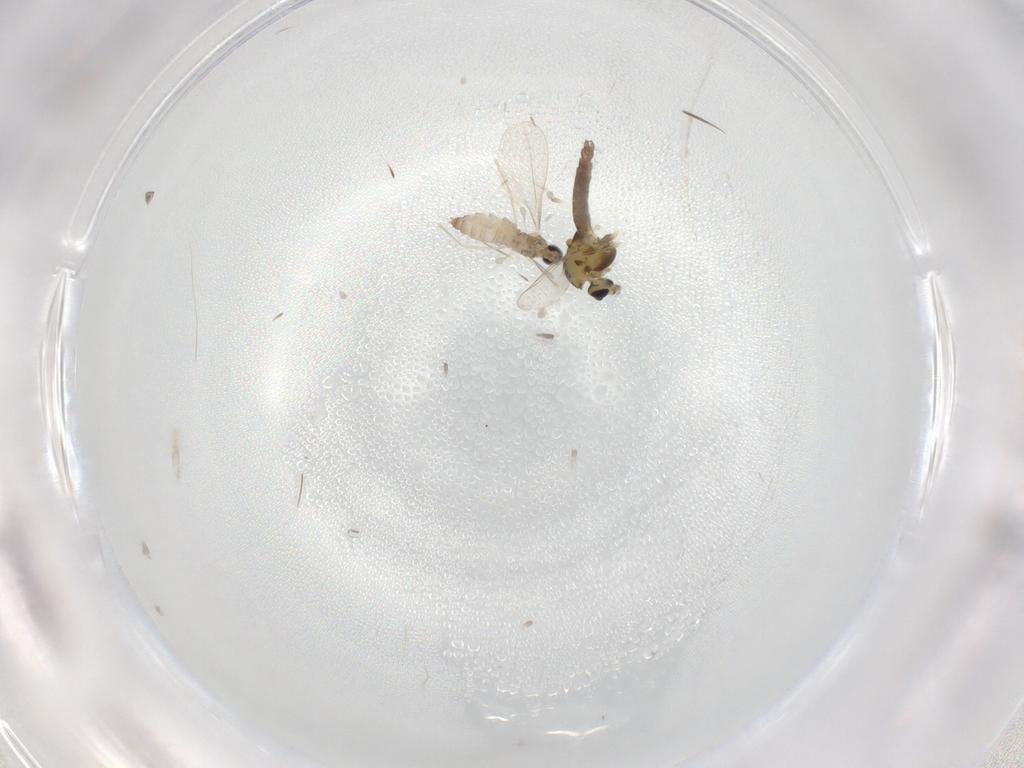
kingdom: Animalia
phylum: Arthropoda
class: Insecta
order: Diptera
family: Cecidomyiidae
